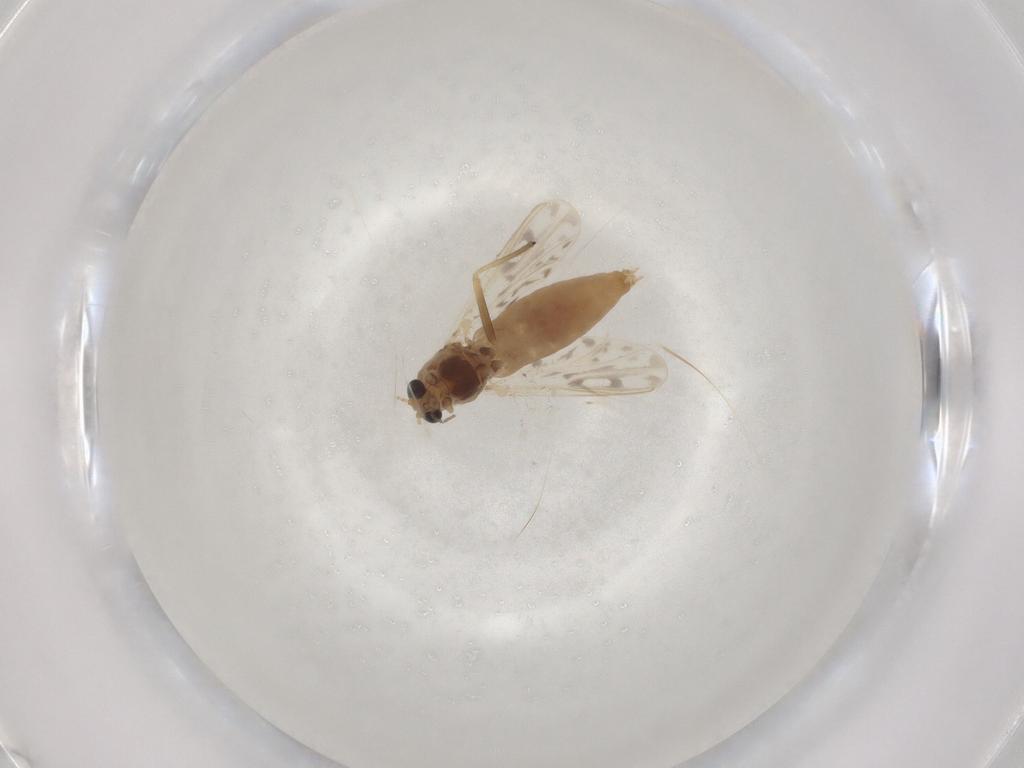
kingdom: Animalia
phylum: Arthropoda
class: Insecta
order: Diptera
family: Chironomidae
